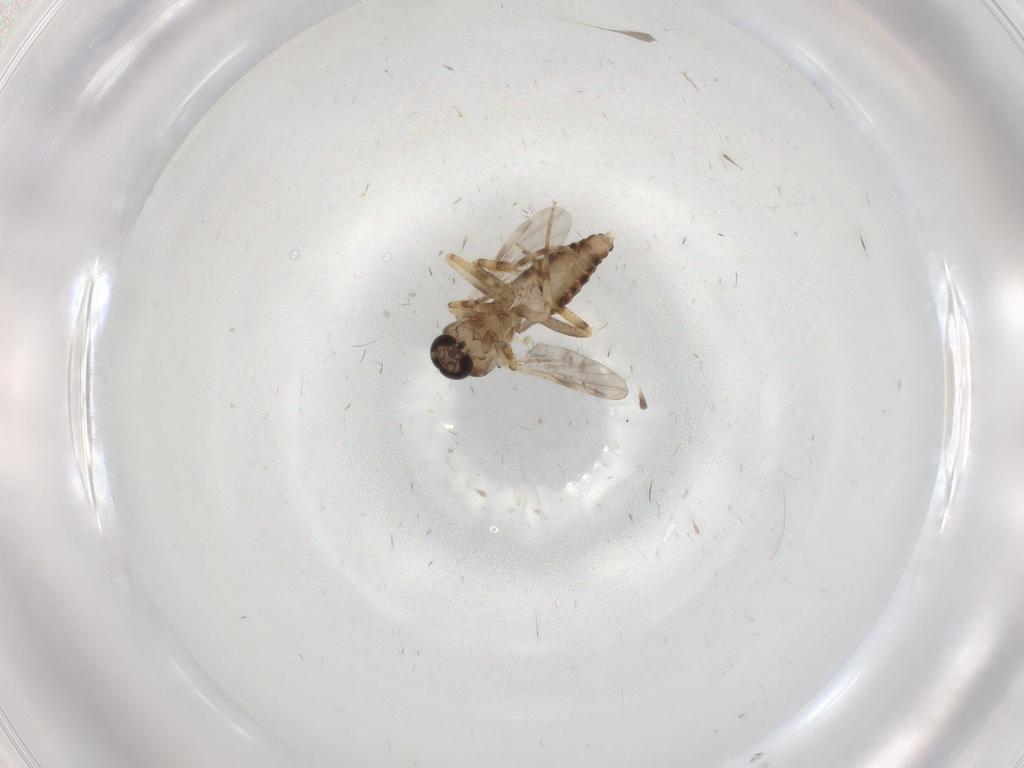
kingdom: Animalia
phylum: Arthropoda
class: Insecta
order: Diptera
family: Ceratopogonidae
